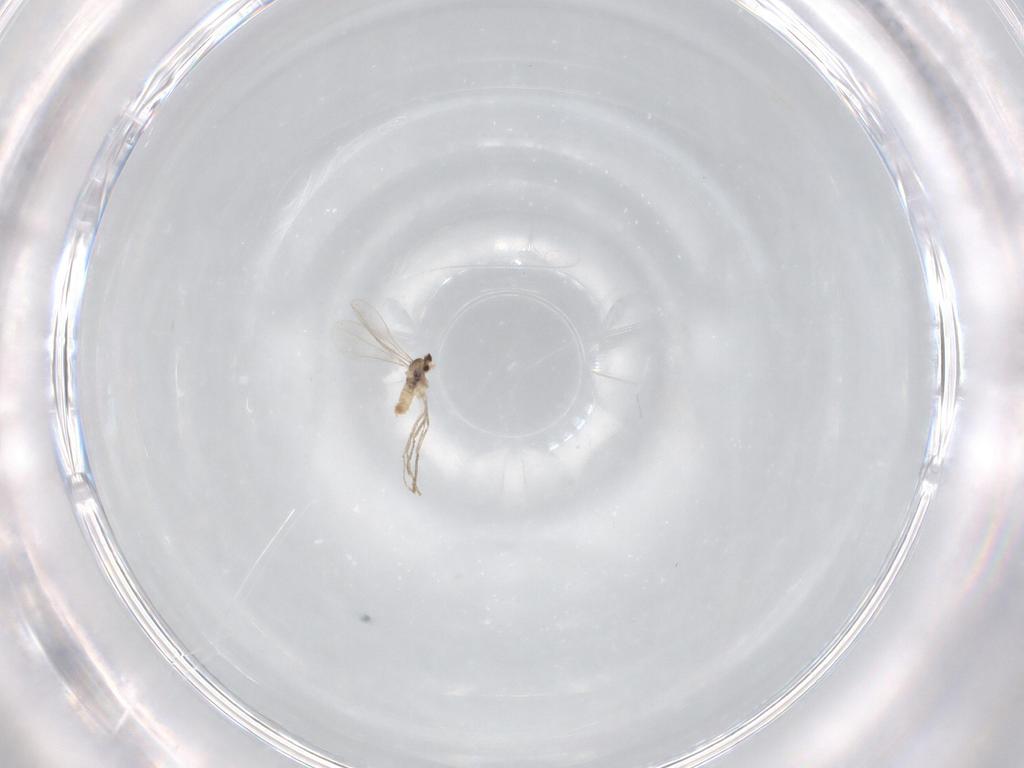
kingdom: Animalia
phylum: Arthropoda
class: Insecta
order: Diptera
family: Cecidomyiidae
